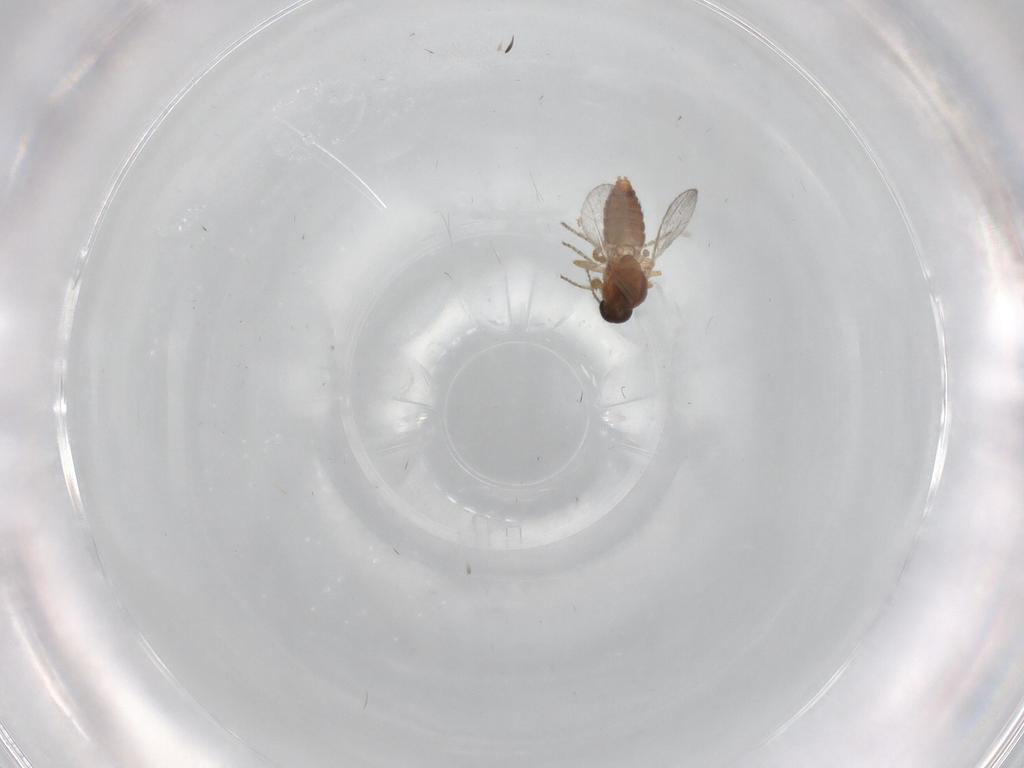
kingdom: Animalia
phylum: Arthropoda
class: Insecta
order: Diptera
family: Ceratopogonidae
